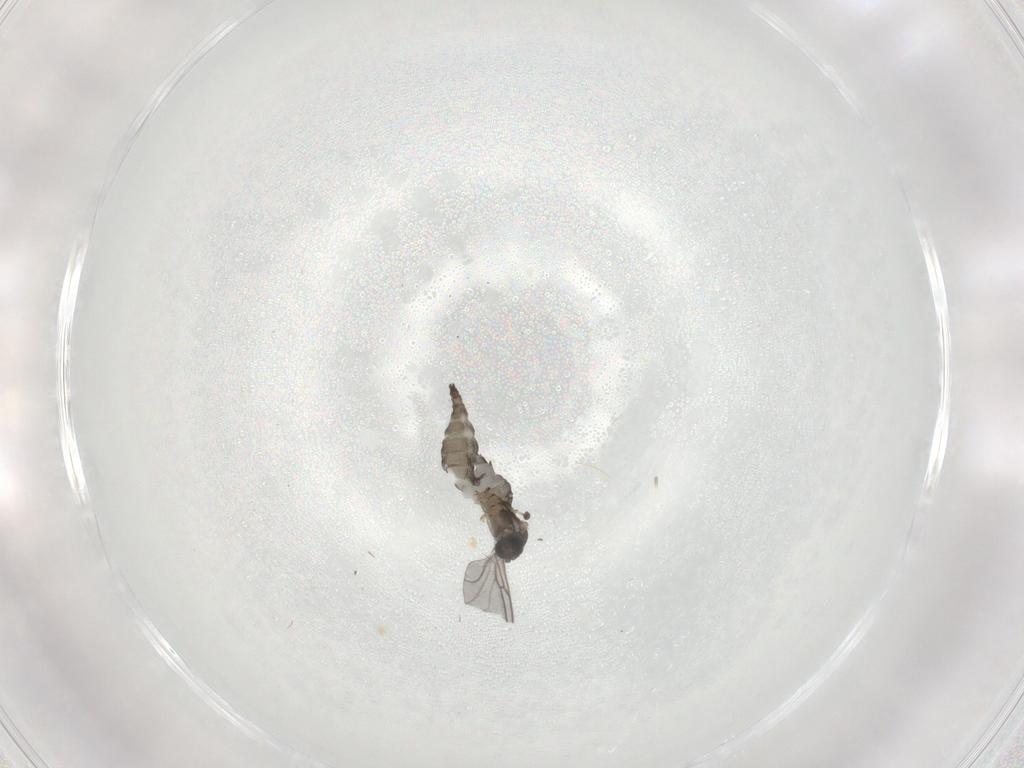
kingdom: Animalia
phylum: Arthropoda
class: Insecta
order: Diptera
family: Sciaridae
